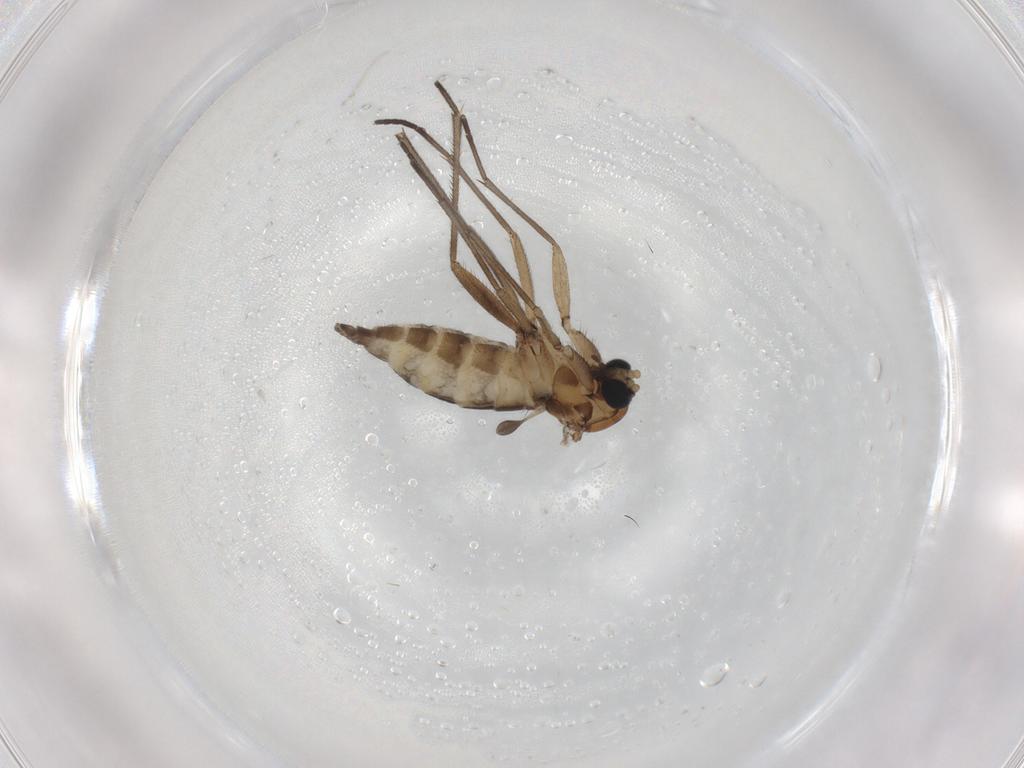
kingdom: Animalia
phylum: Arthropoda
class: Insecta
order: Diptera
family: Sciaridae
